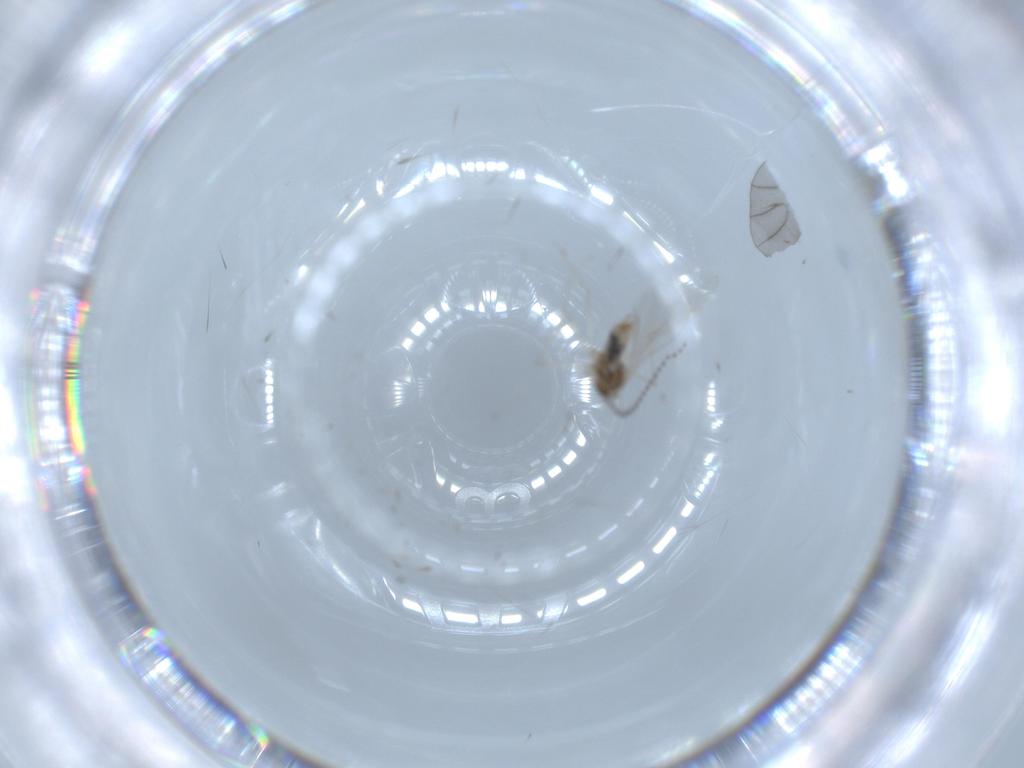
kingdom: Animalia
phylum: Arthropoda
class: Insecta
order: Diptera
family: Cecidomyiidae
